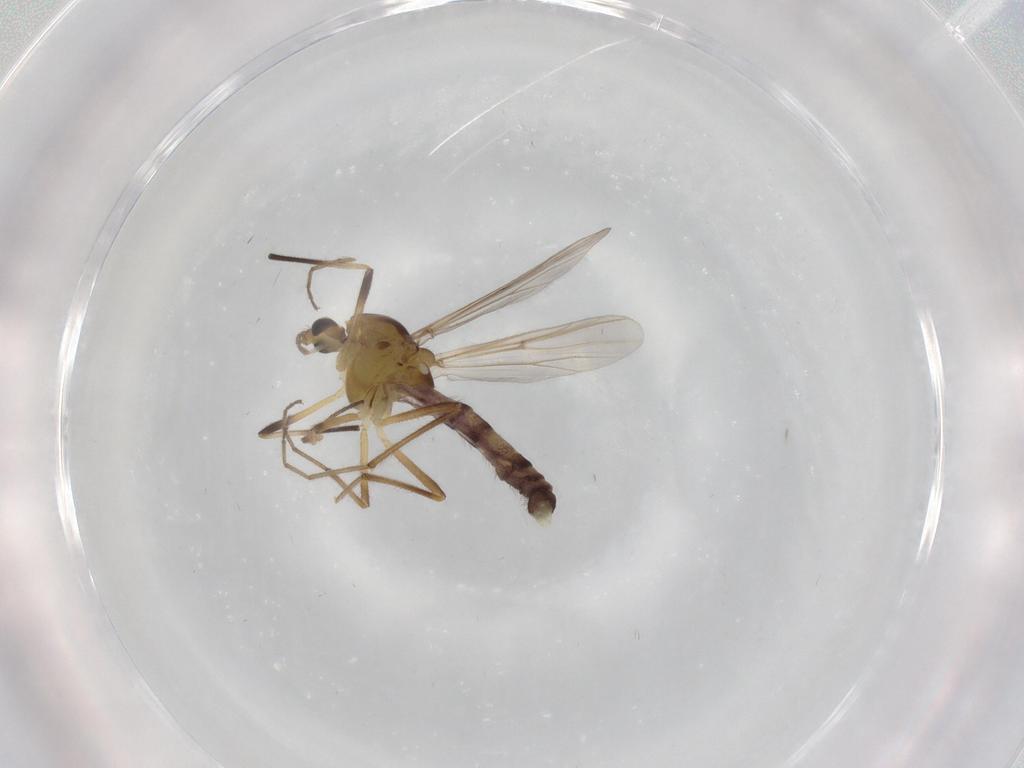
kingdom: Animalia
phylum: Arthropoda
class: Insecta
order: Diptera
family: Chironomidae
